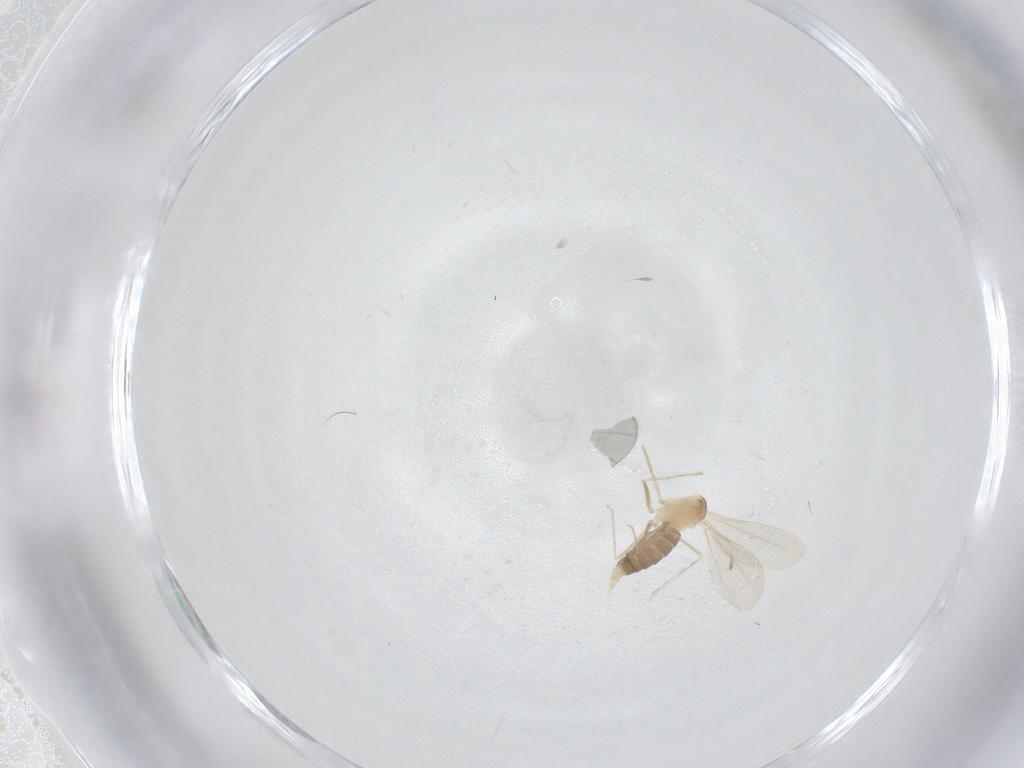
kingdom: Animalia
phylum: Arthropoda
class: Insecta
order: Diptera
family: Cecidomyiidae
